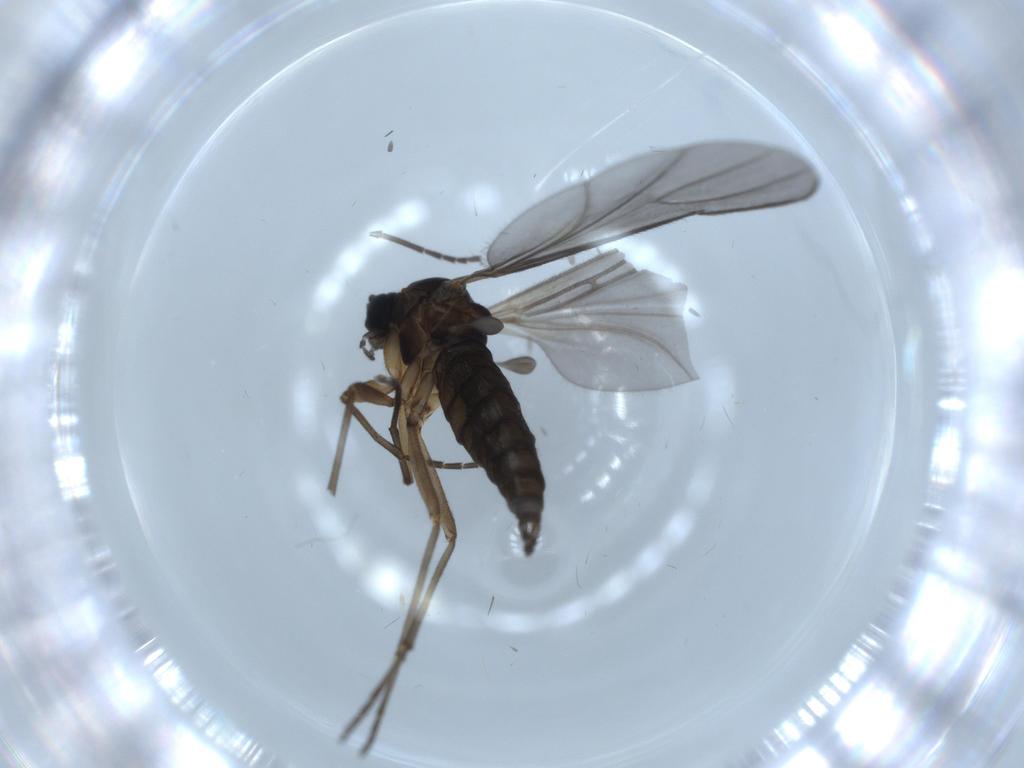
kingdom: Animalia
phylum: Arthropoda
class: Insecta
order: Diptera
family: Sciaridae
